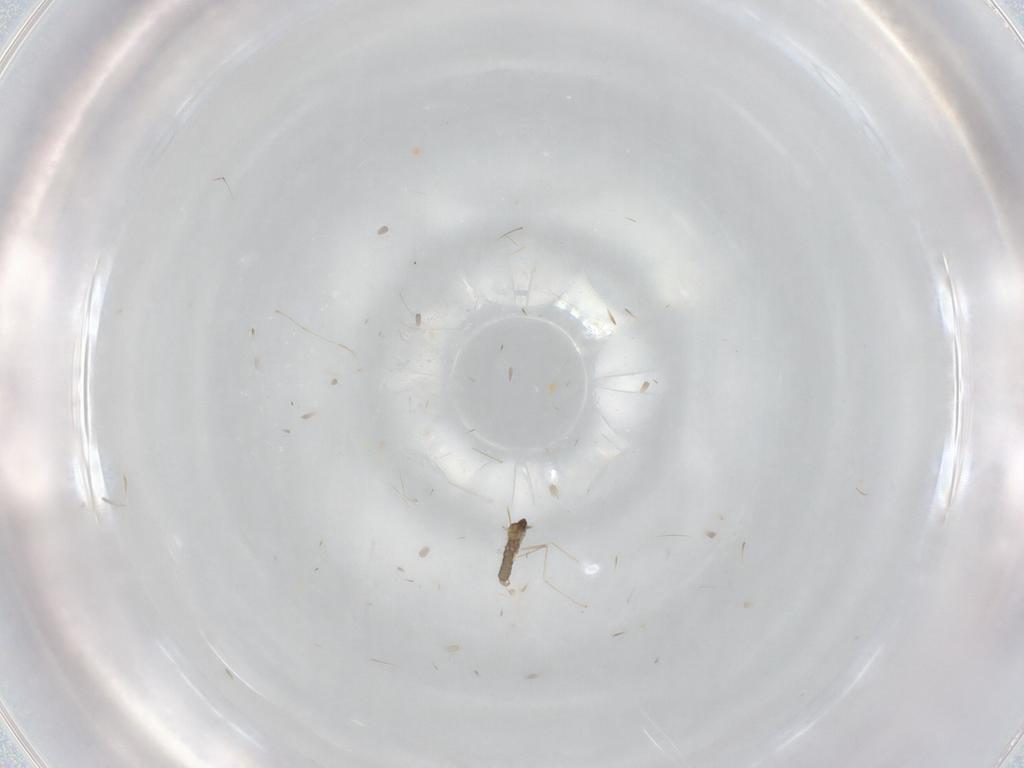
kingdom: Animalia
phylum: Arthropoda
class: Insecta
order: Diptera
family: Cecidomyiidae
